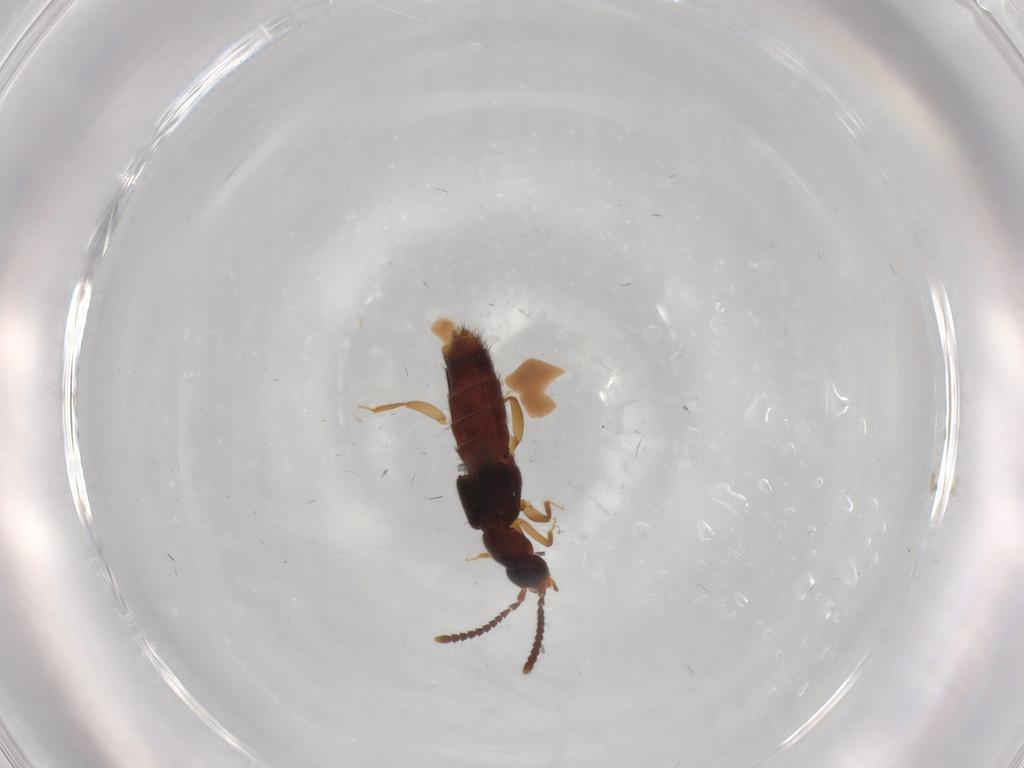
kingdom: Animalia
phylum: Arthropoda
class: Insecta
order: Coleoptera
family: Staphylinidae
